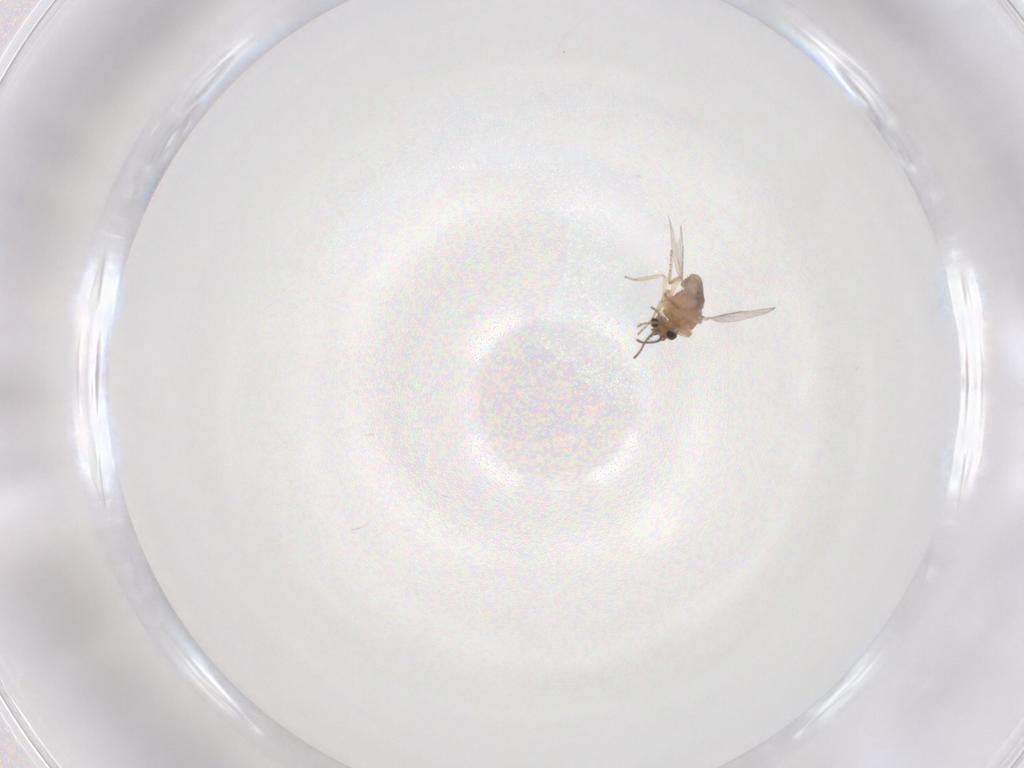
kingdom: Animalia
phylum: Arthropoda
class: Insecta
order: Diptera
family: Ceratopogonidae
